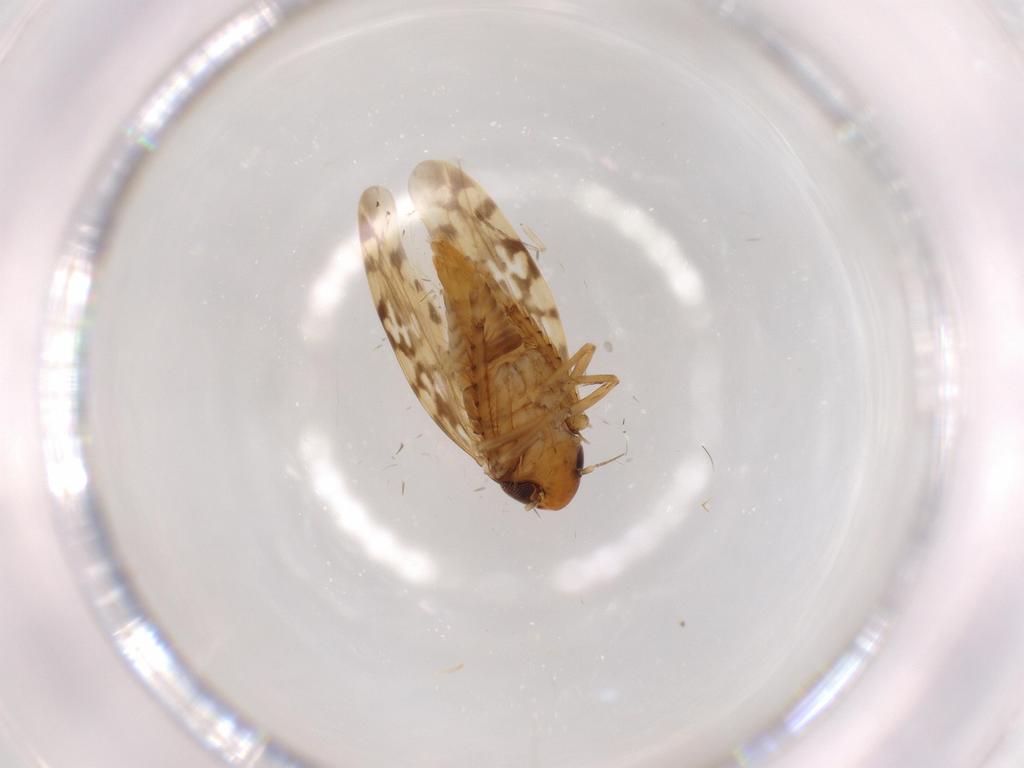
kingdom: Animalia
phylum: Arthropoda
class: Insecta
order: Hemiptera
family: Cicadellidae
